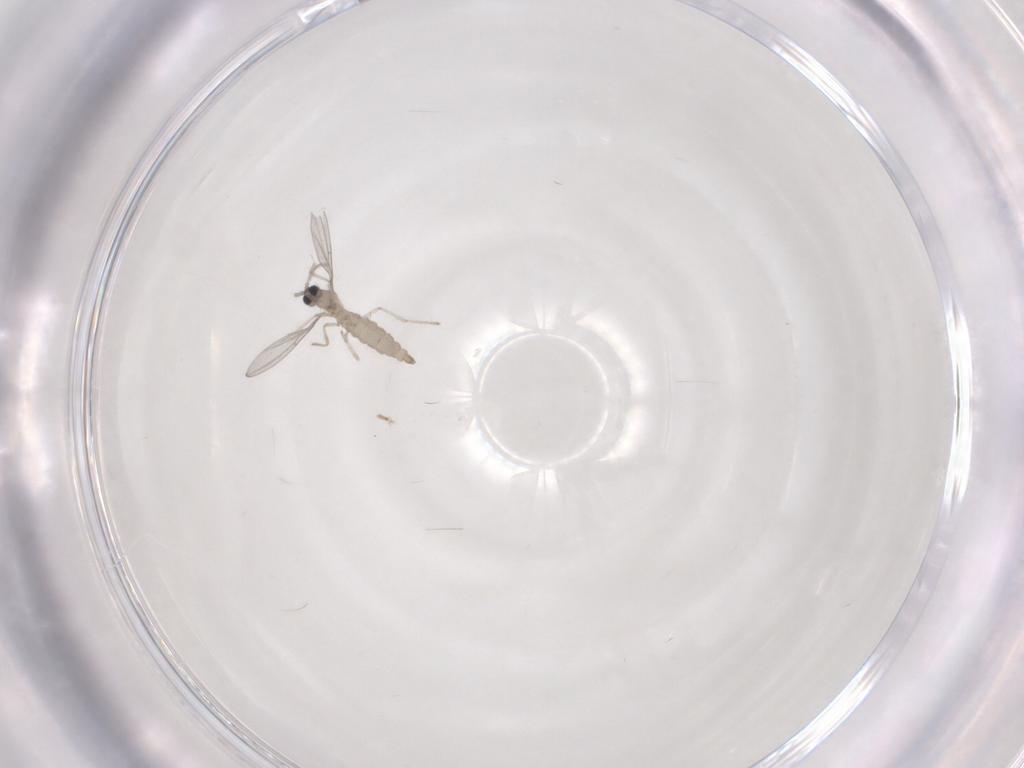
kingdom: Animalia
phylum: Arthropoda
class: Insecta
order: Diptera
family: Cecidomyiidae
